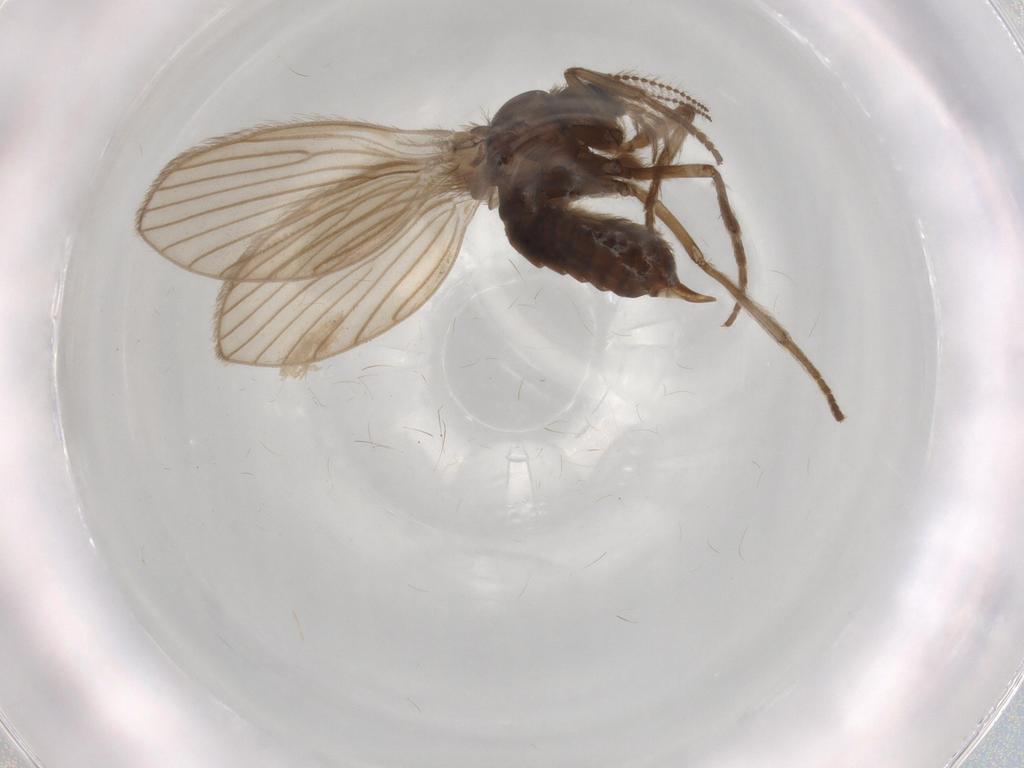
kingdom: Animalia
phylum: Arthropoda
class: Insecta
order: Diptera
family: Psychodidae
